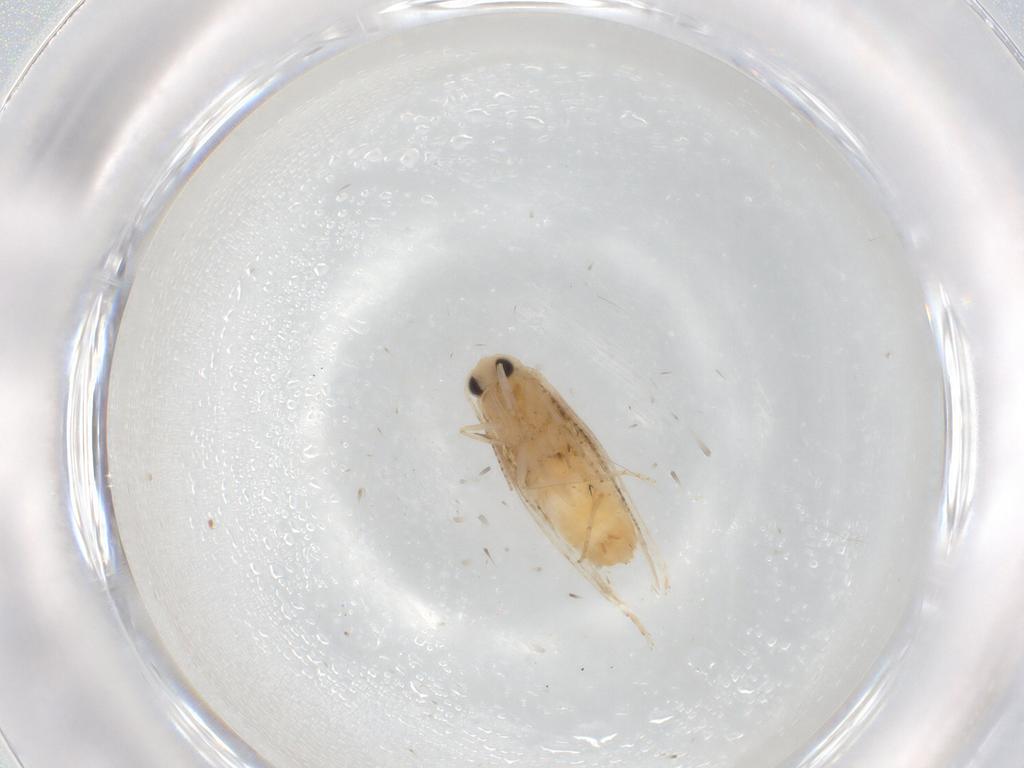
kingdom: Animalia
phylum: Arthropoda
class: Insecta
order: Lepidoptera
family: Bucculatricidae
